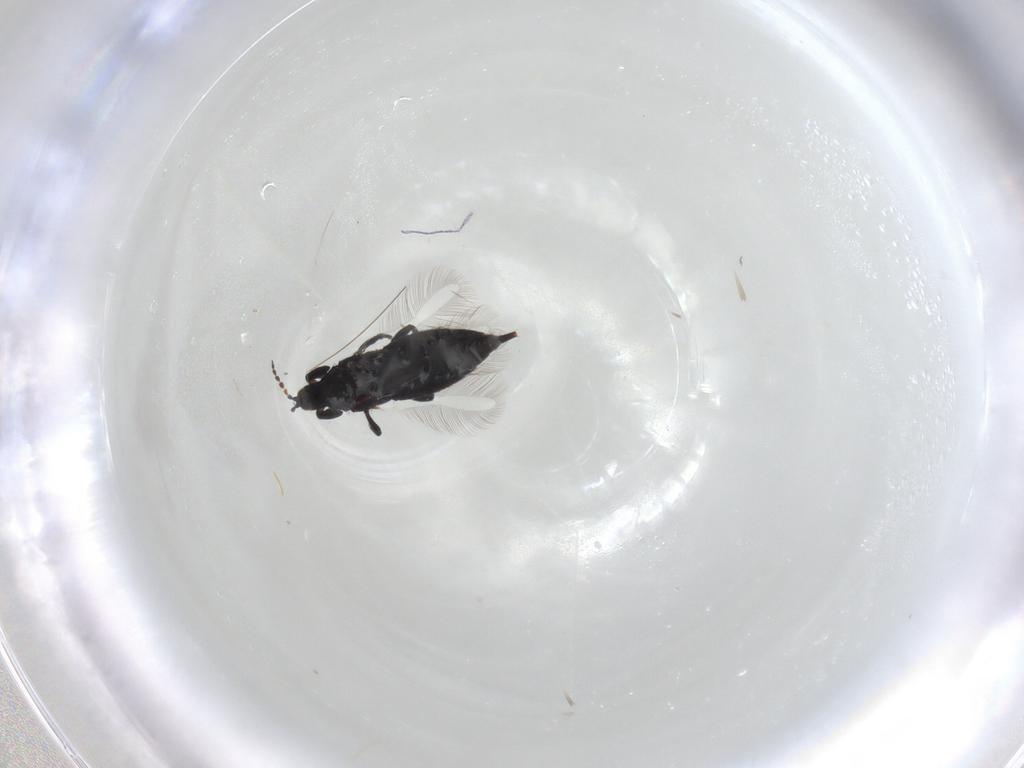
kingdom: Animalia
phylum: Arthropoda
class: Insecta
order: Thysanoptera
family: Phlaeothripidae
